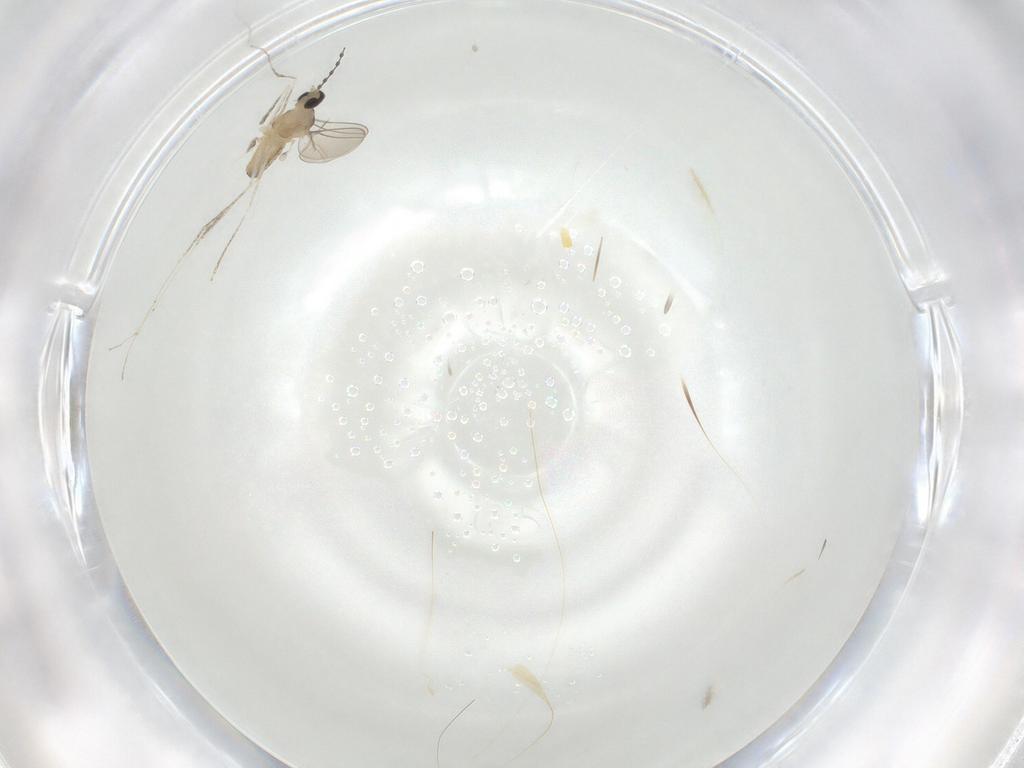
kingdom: Animalia
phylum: Arthropoda
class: Insecta
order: Diptera
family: Cecidomyiidae
